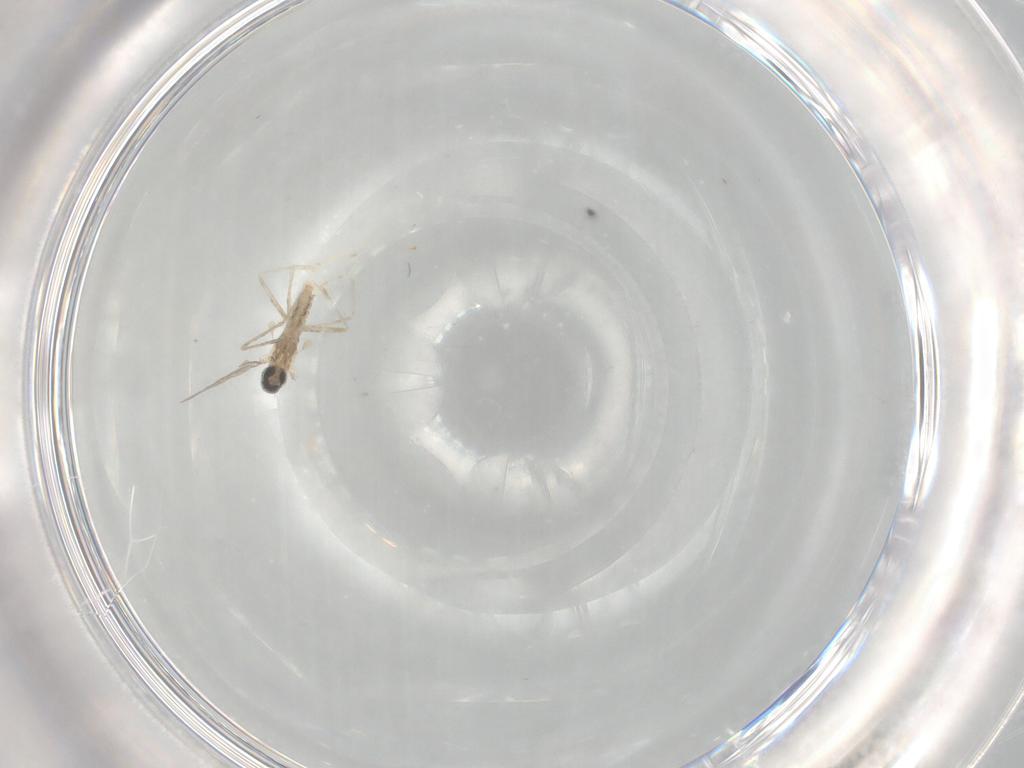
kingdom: Animalia
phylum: Arthropoda
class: Insecta
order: Diptera
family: Cecidomyiidae
